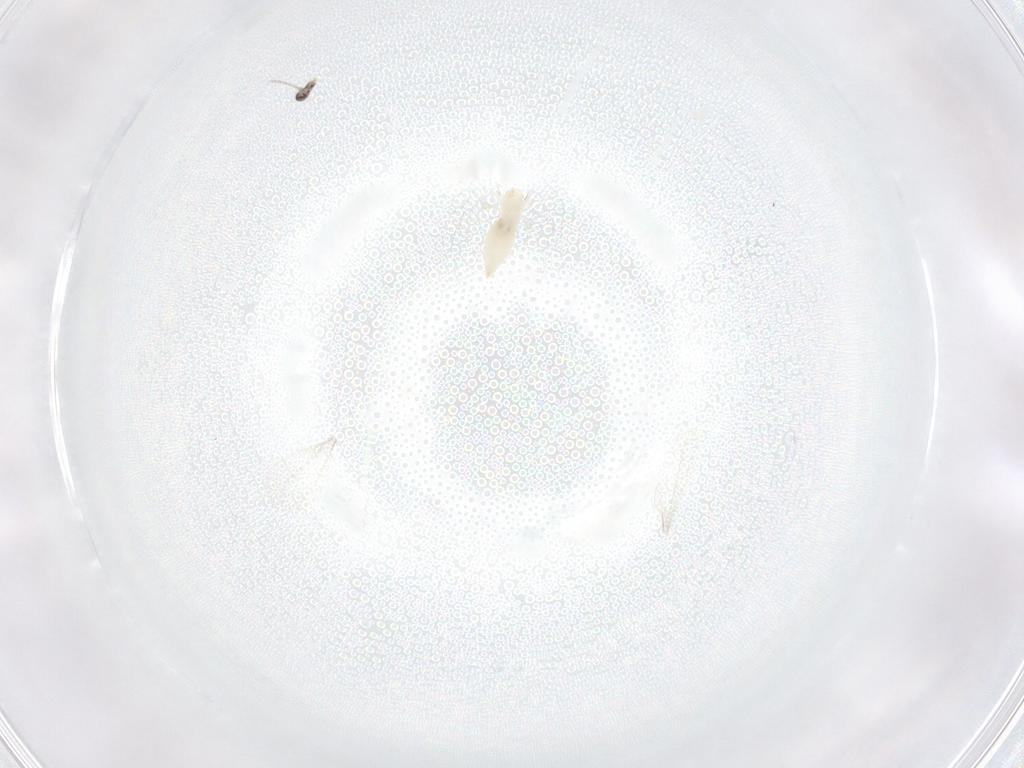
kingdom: Animalia
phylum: Arthropoda
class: Insecta
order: Diptera
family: Cecidomyiidae
